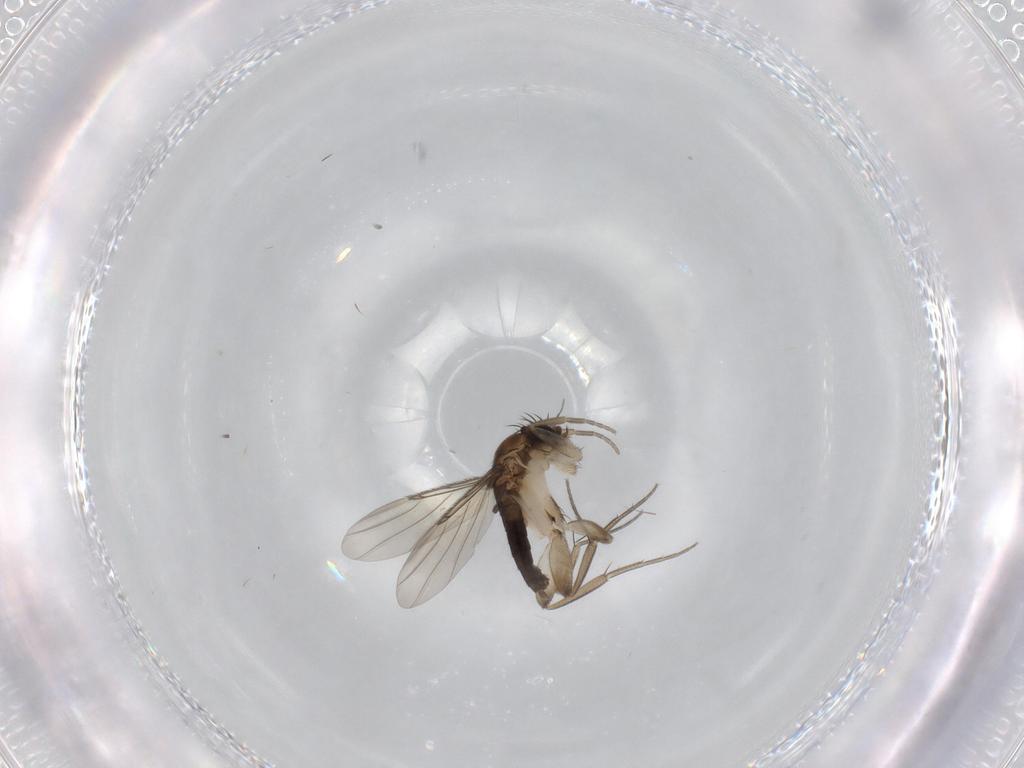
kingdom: Animalia
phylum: Arthropoda
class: Insecta
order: Diptera
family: Phoridae
